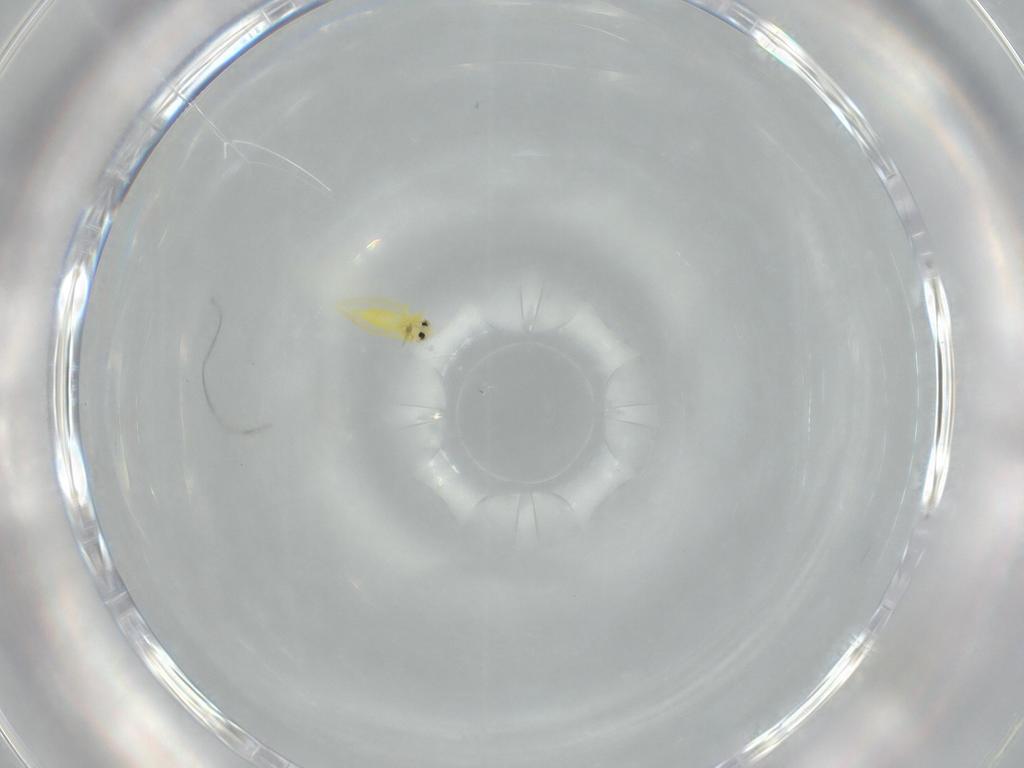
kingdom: Animalia
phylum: Arthropoda
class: Insecta
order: Hemiptera
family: Aleyrodidae
